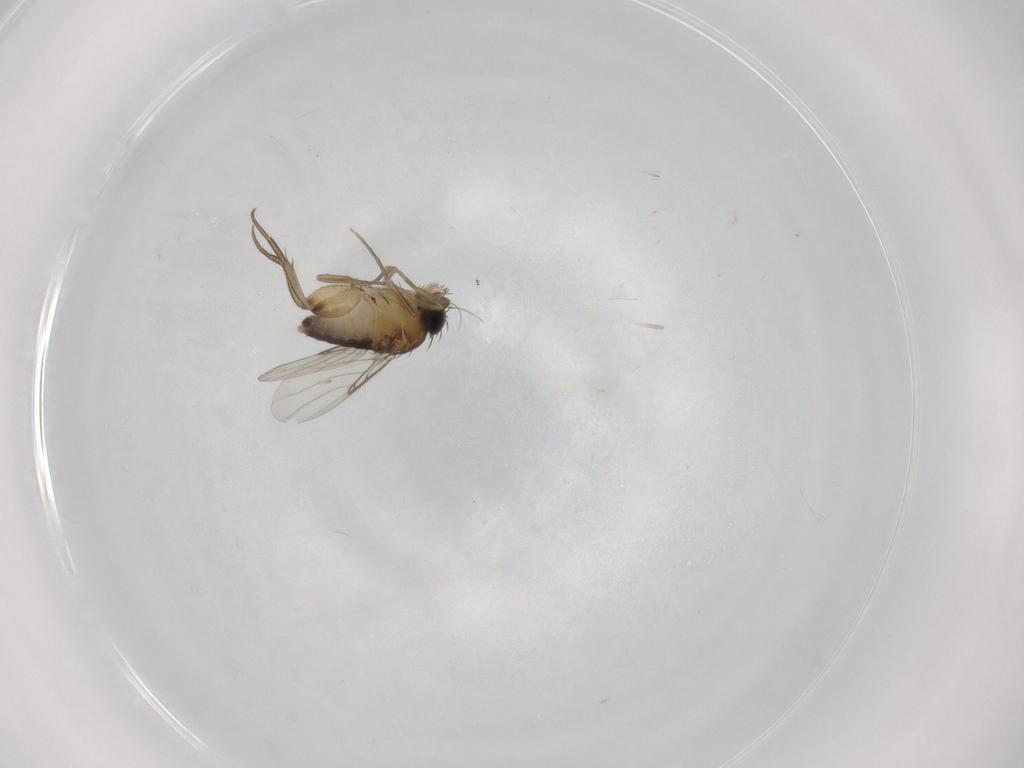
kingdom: Animalia
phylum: Arthropoda
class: Insecta
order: Diptera
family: Phoridae
